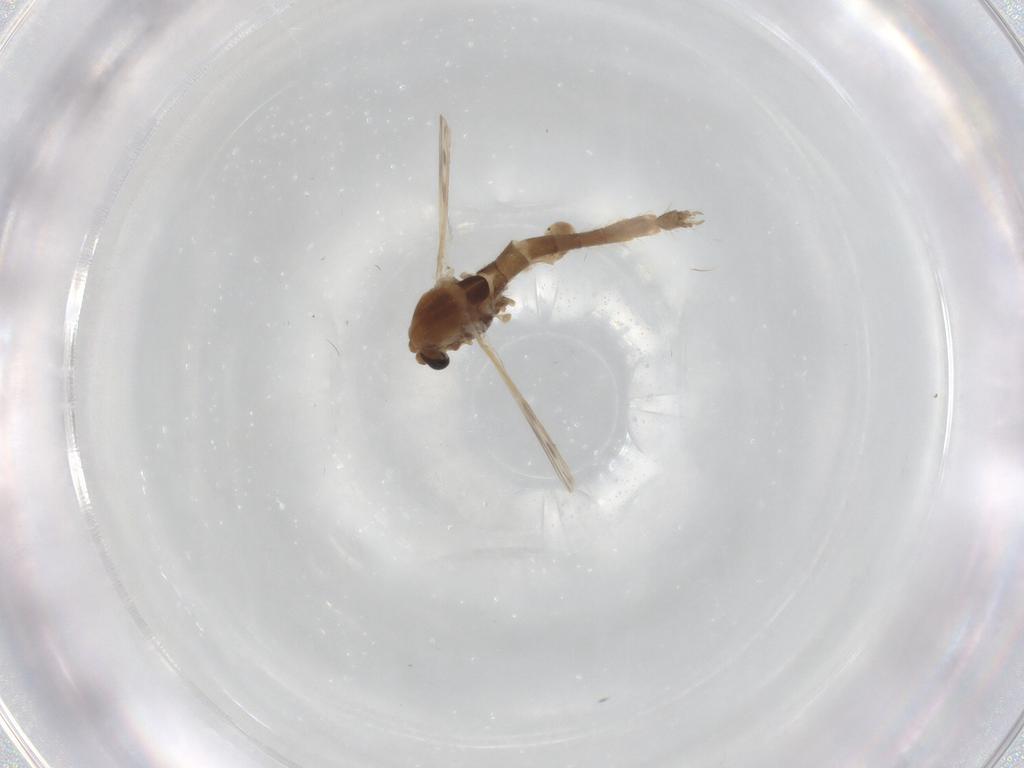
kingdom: Animalia
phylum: Arthropoda
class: Insecta
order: Diptera
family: Chironomidae
